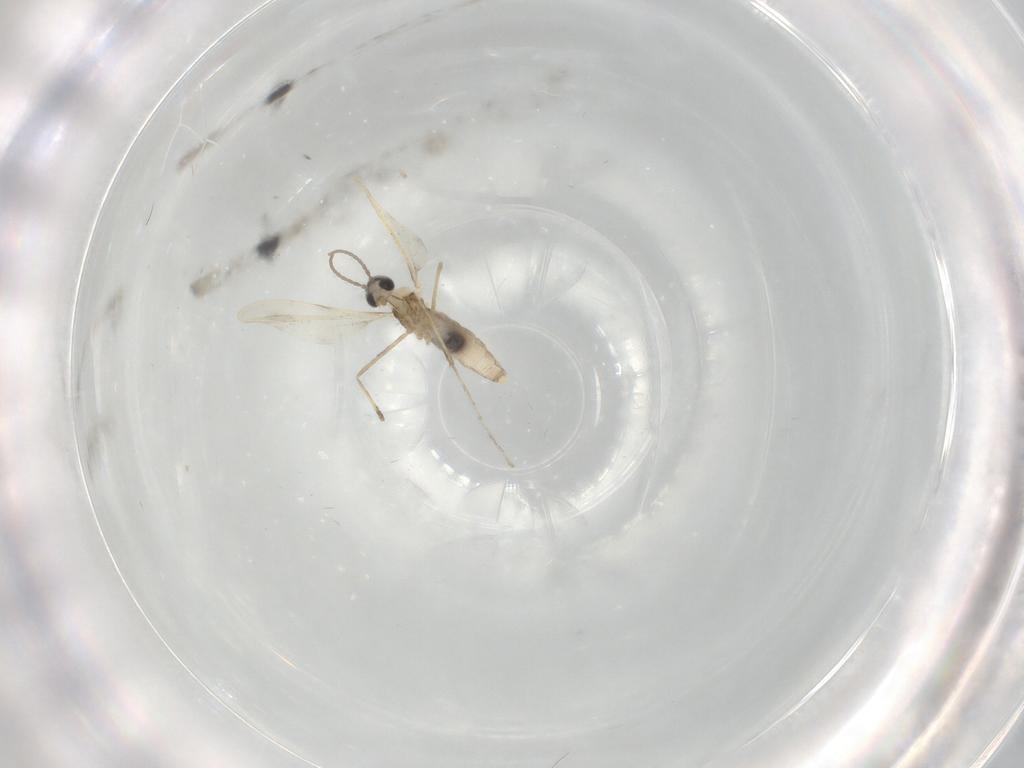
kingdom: Animalia
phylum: Arthropoda
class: Insecta
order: Diptera
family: Cecidomyiidae
